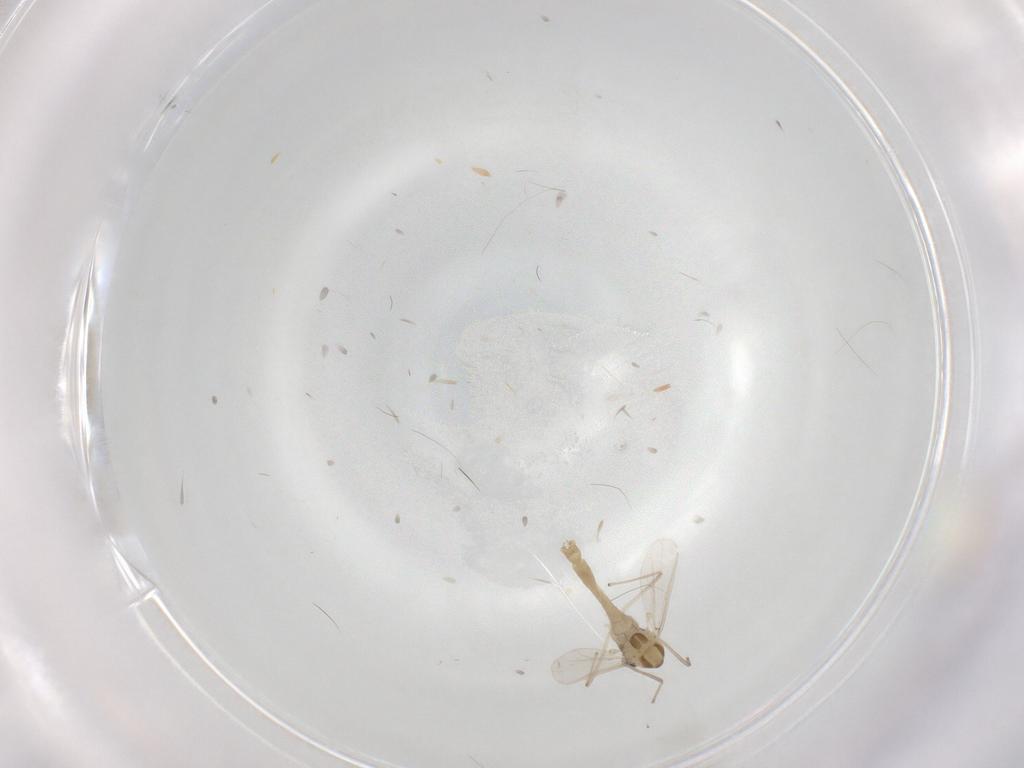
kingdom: Animalia
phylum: Arthropoda
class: Insecta
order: Diptera
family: Chironomidae
